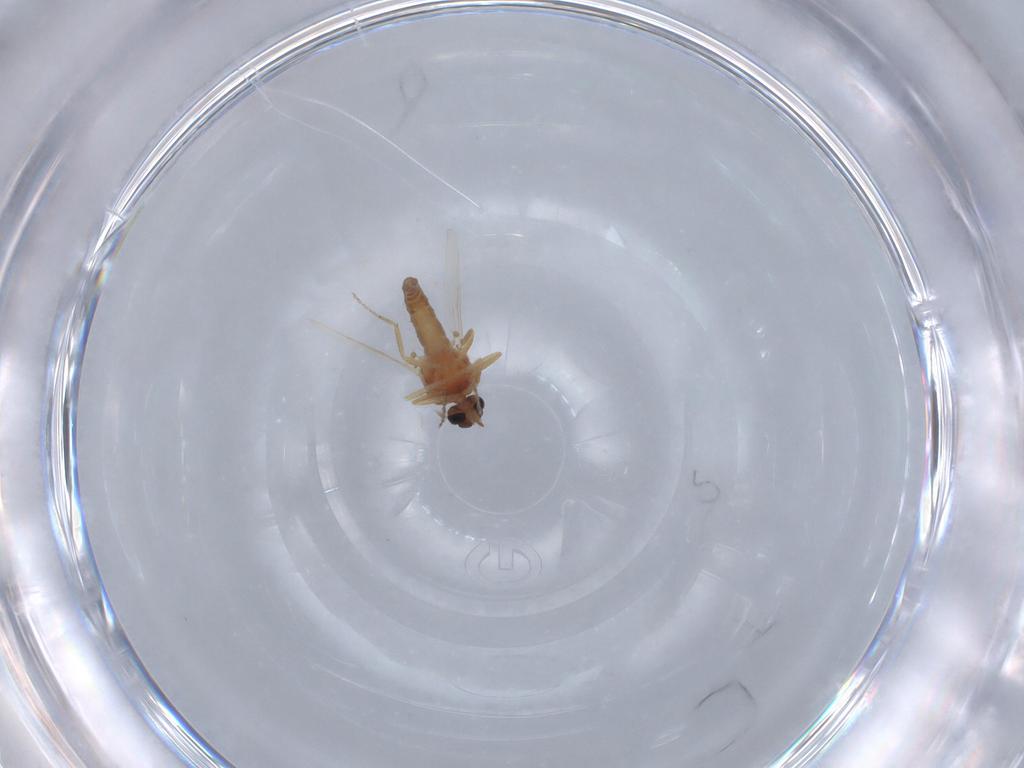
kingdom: Animalia
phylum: Arthropoda
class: Insecta
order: Diptera
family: Ceratopogonidae
